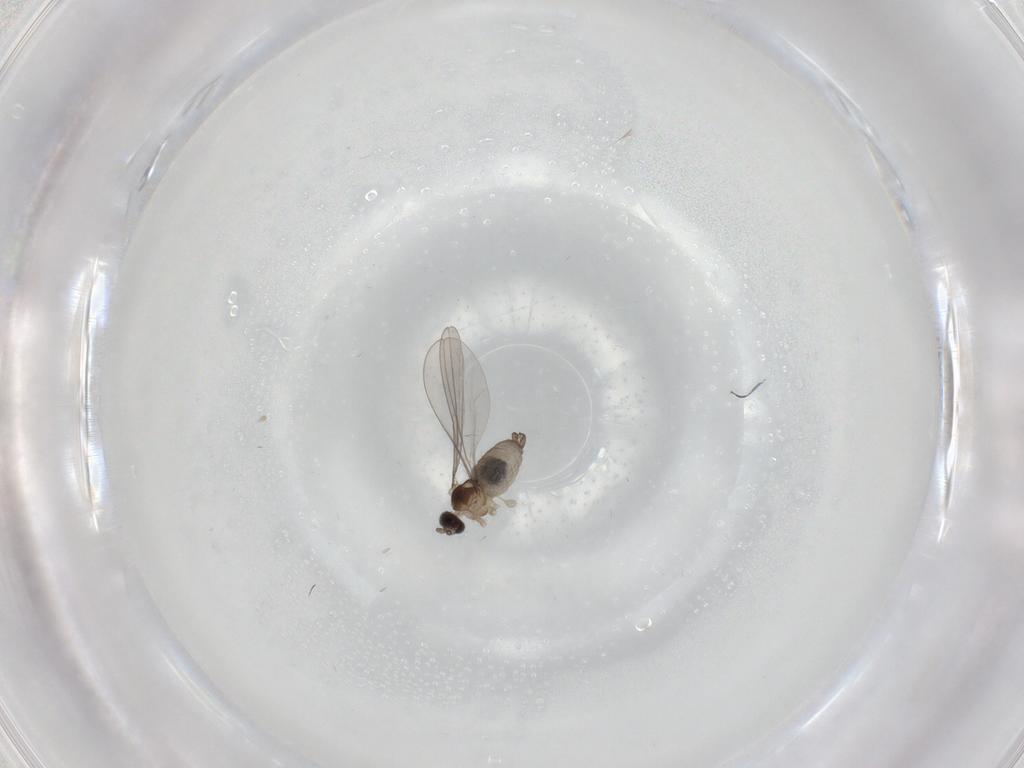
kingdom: Animalia
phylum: Arthropoda
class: Insecta
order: Diptera
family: Cecidomyiidae
